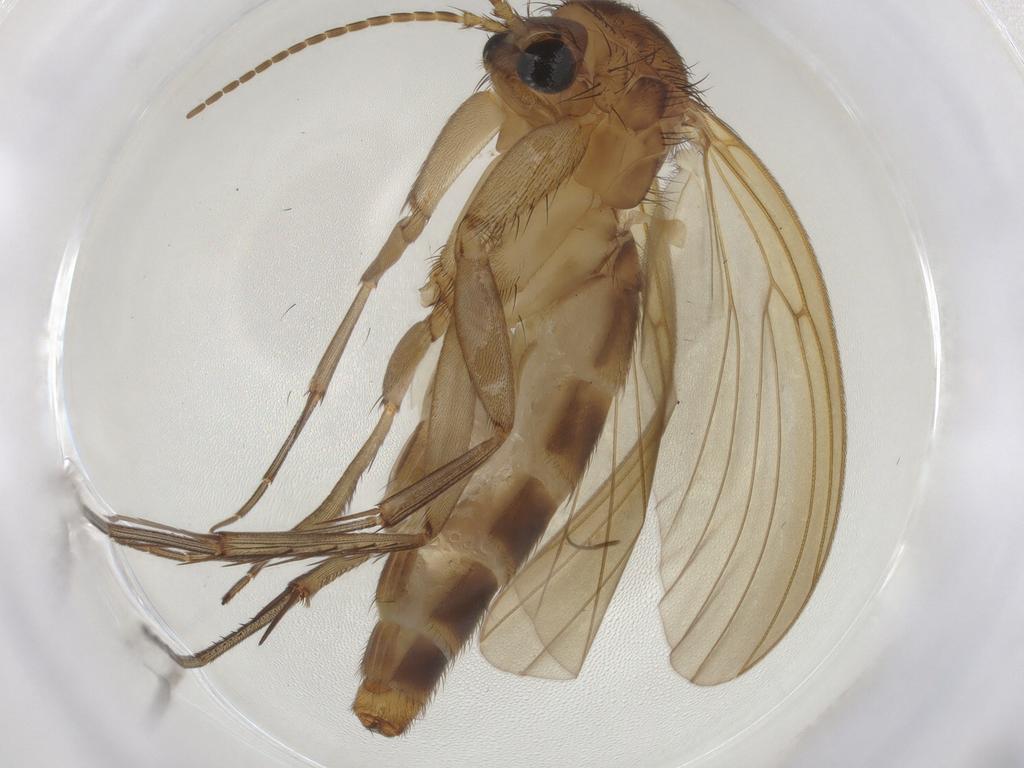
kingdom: Animalia
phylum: Arthropoda
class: Insecta
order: Diptera
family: Mycetophilidae
